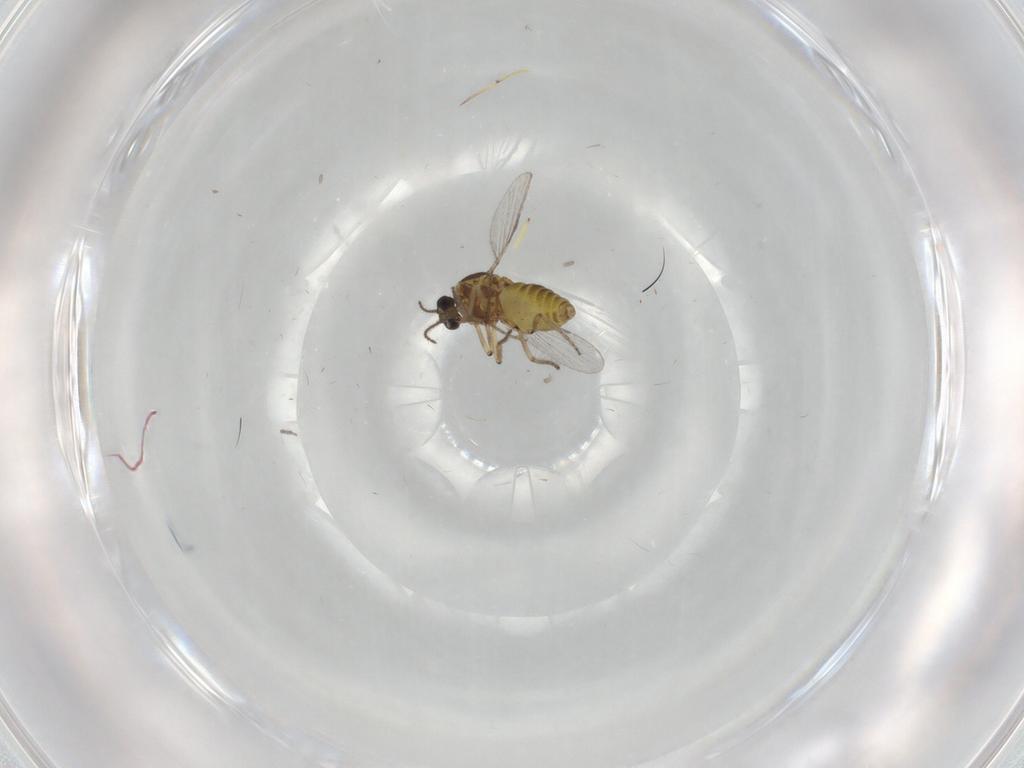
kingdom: Animalia
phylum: Arthropoda
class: Insecta
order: Diptera
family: Ceratopogonidae
